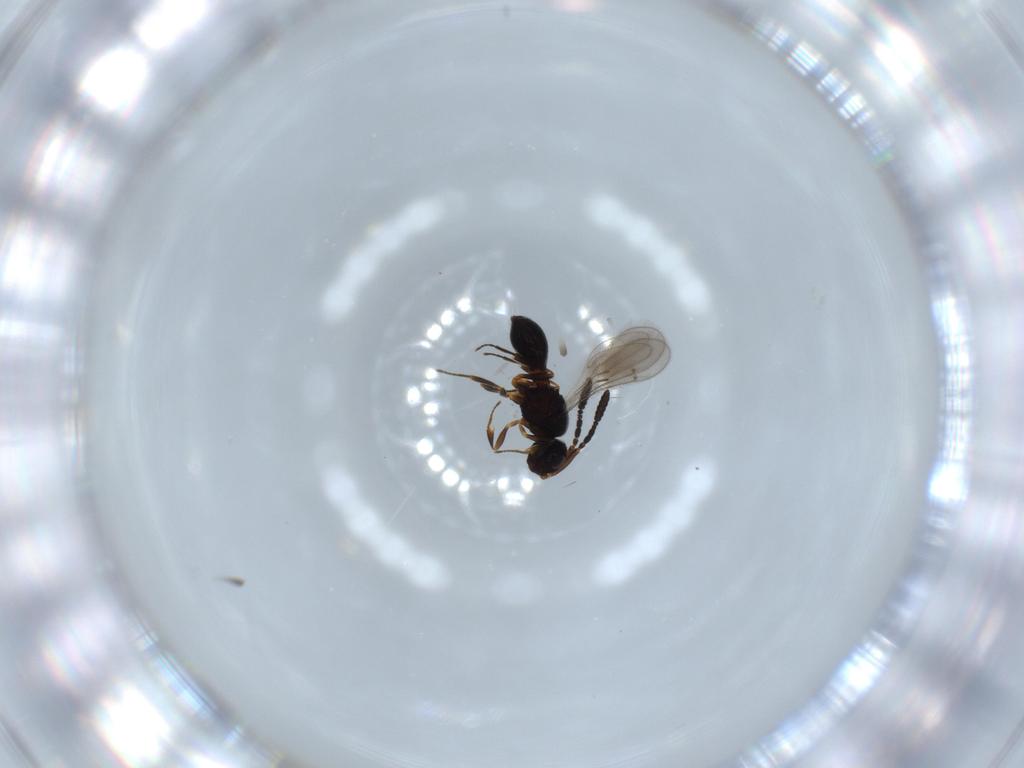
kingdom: Animalia
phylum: Arthropoda
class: Insecta
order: Hymenoptera
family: Scelionidae
